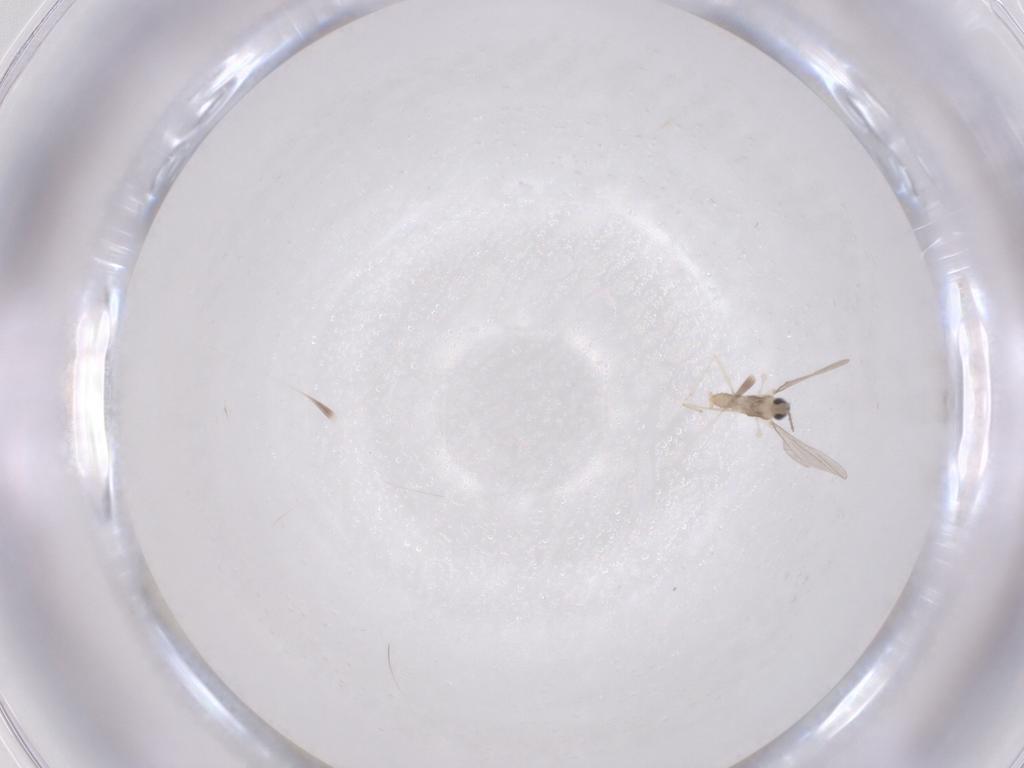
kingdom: Animalia
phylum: Arthropoda
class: Insecta
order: Diptera
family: Cecidomyiidae
